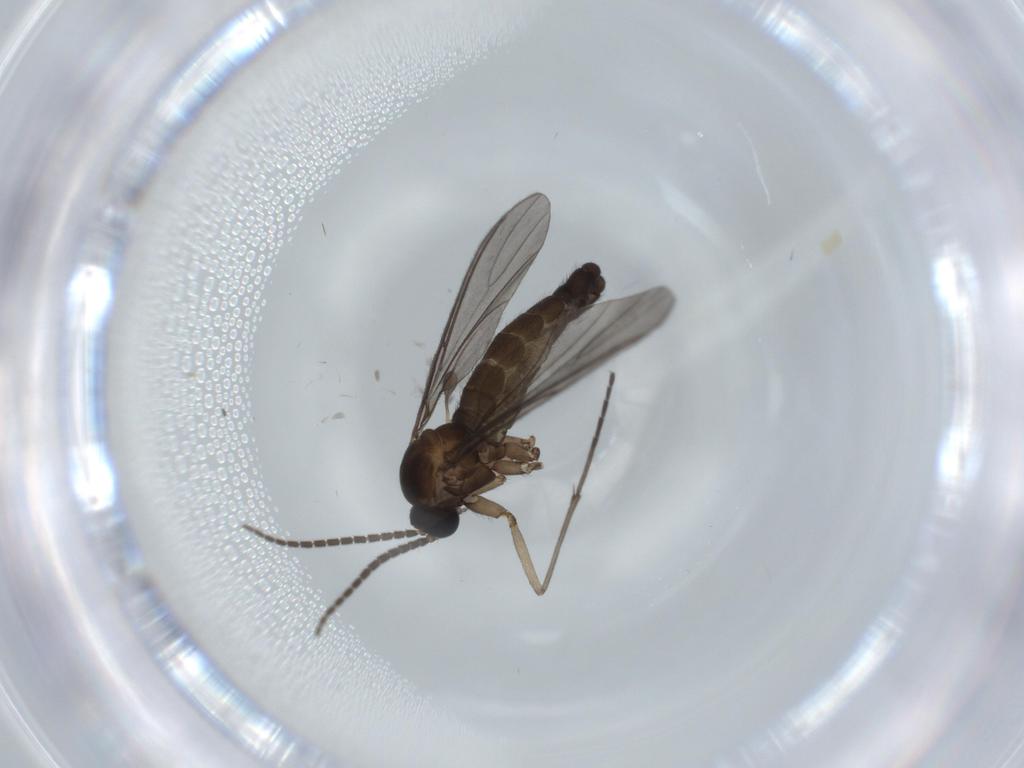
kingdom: Animalia
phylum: Arthropoda
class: Insecta
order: Diptera
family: Sciaridae
